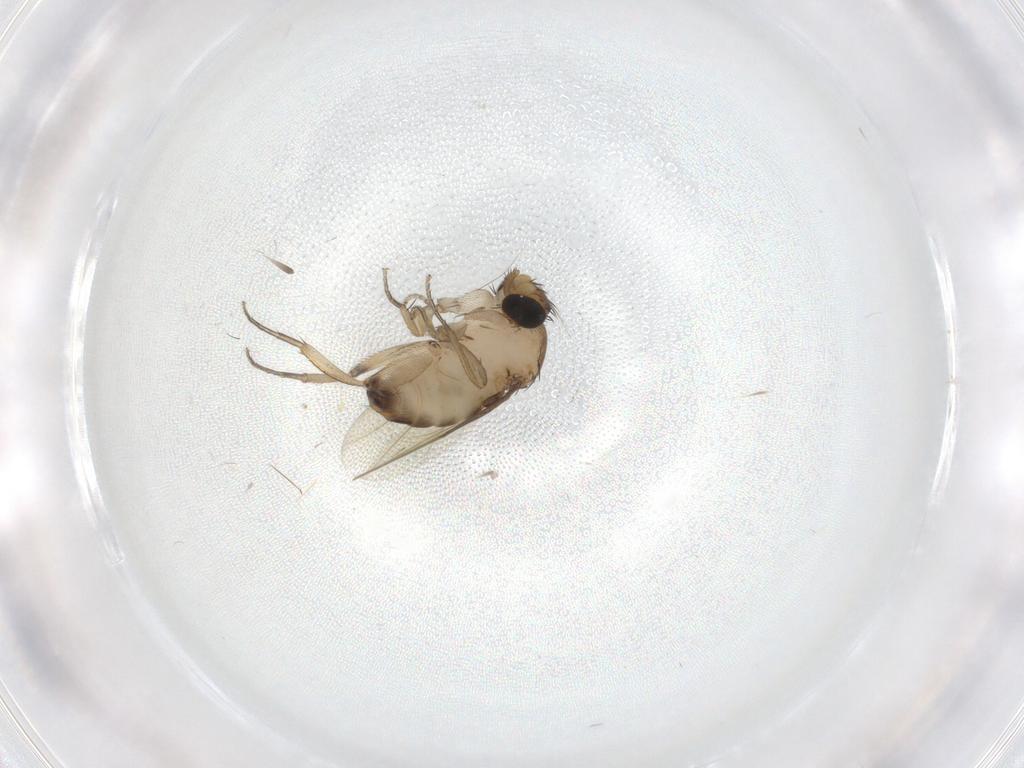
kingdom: Animalia
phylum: Arthropoda
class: Insecta
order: Diptera
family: Phoridae
